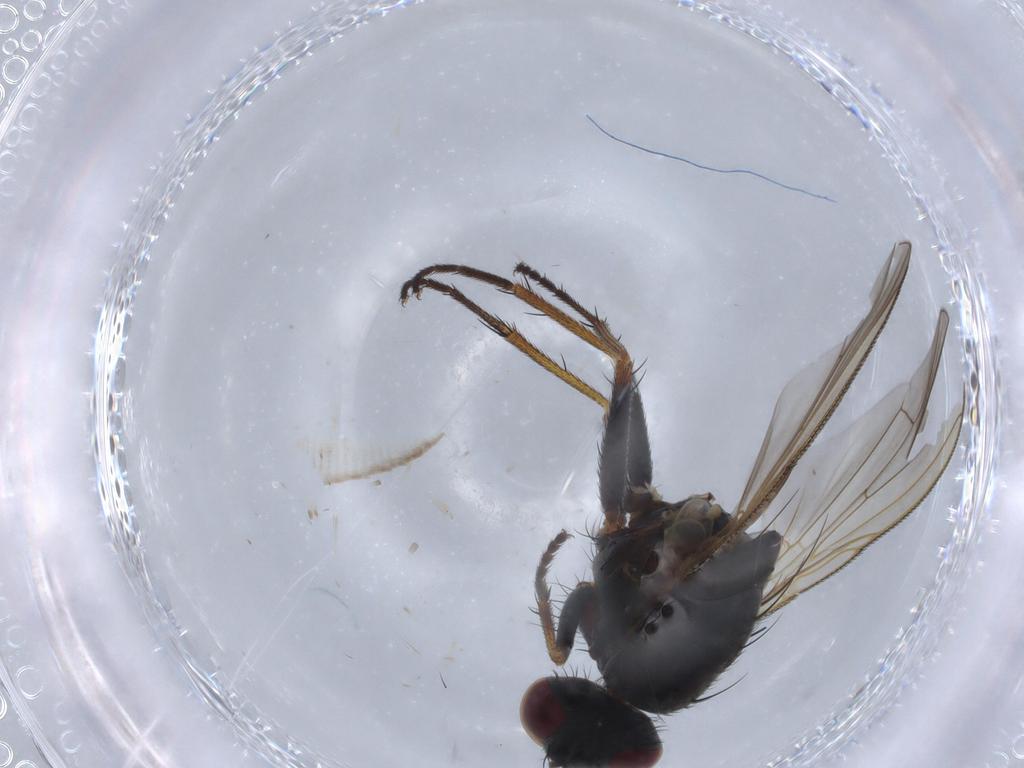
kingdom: Animalia
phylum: Arthropoda
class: Insecta
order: Diptera
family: Muscidae
